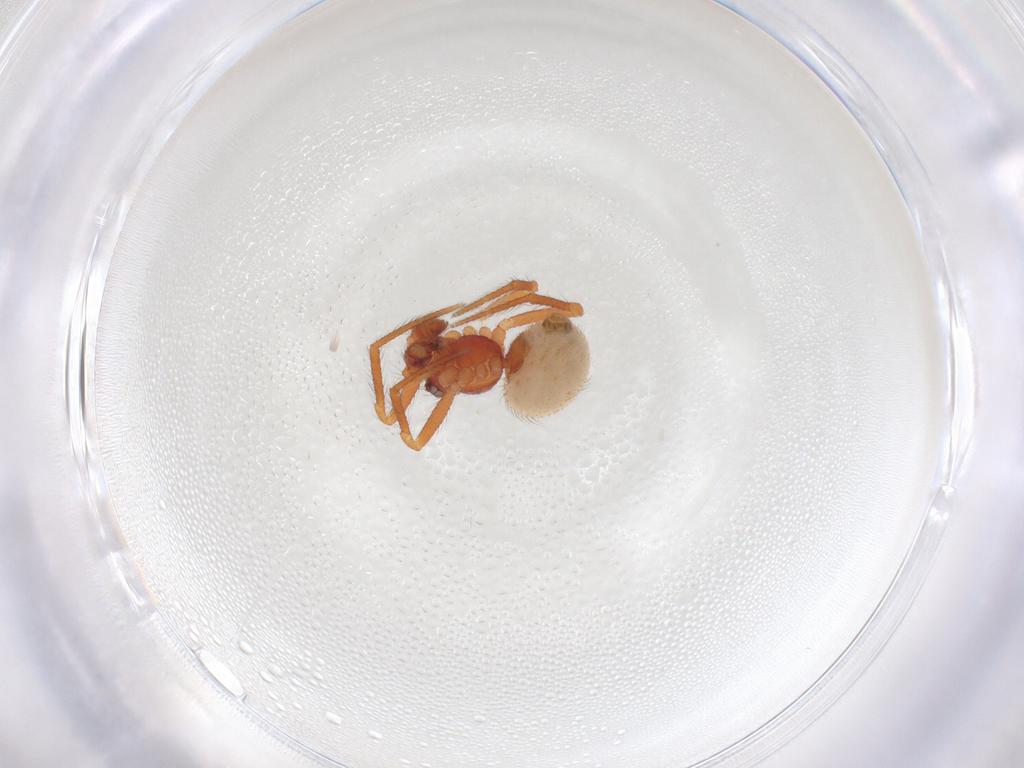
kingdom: Animalia
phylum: Arthropoda
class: Arachnida
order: Araneae
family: Theridiidae
